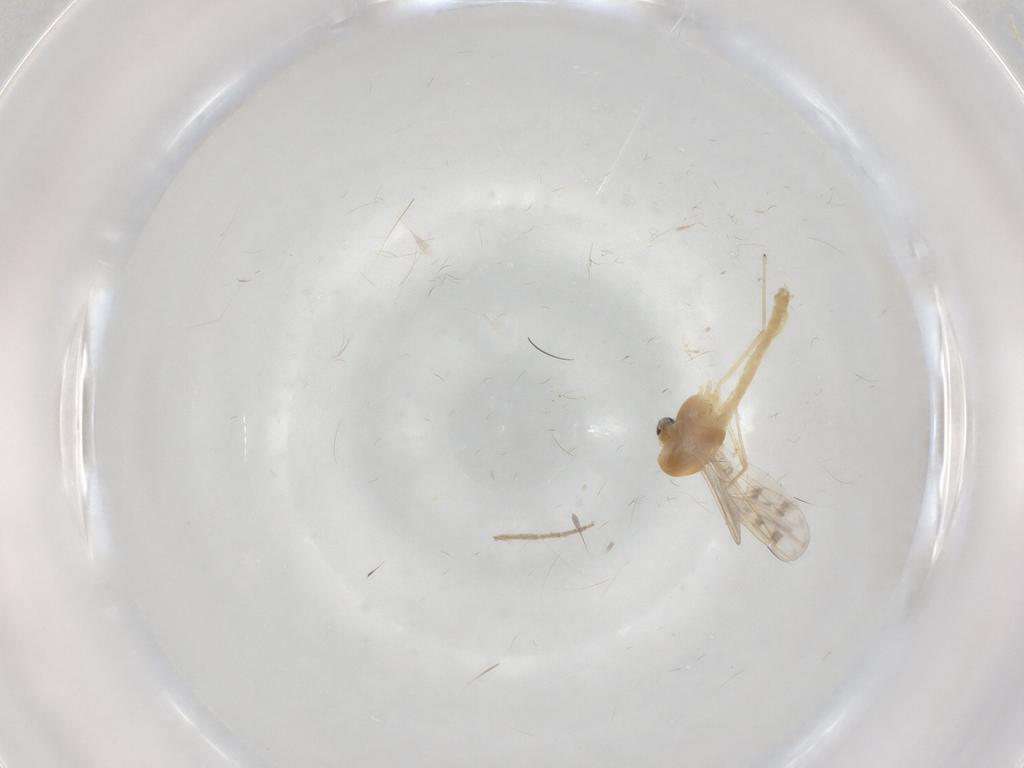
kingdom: Animalia
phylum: Arthropoda
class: Insecta
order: Diptera
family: Chironomidae
